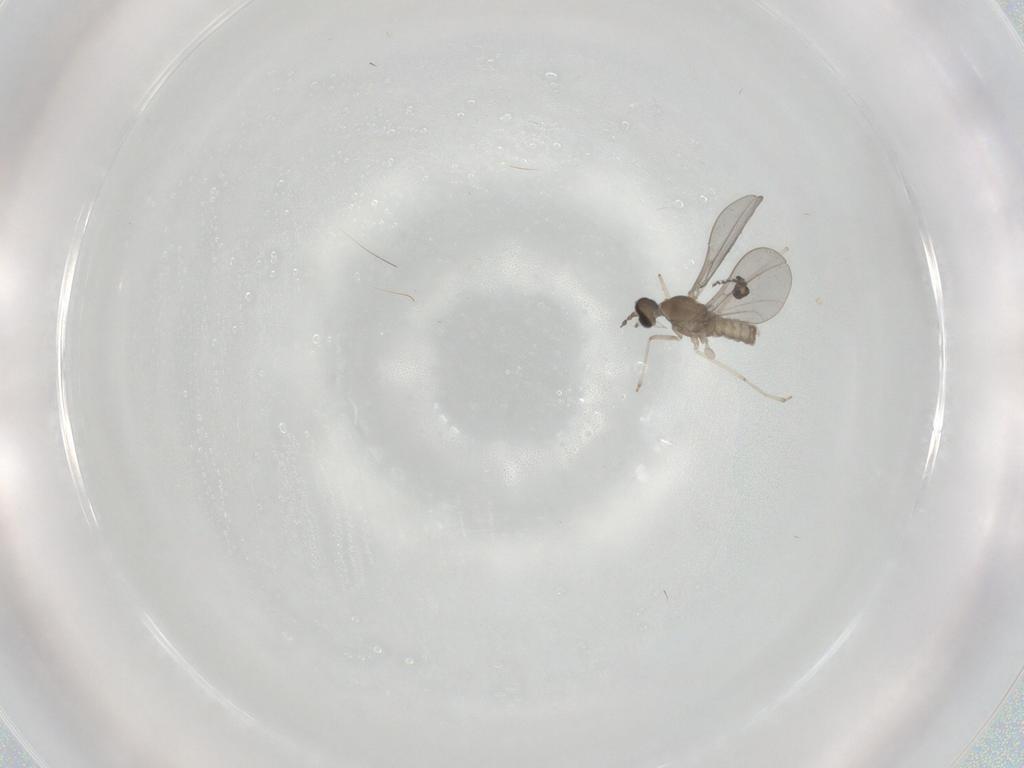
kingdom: Animalia
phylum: Arthropoda
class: Insecta
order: Diptera
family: Cecidomyiidae
